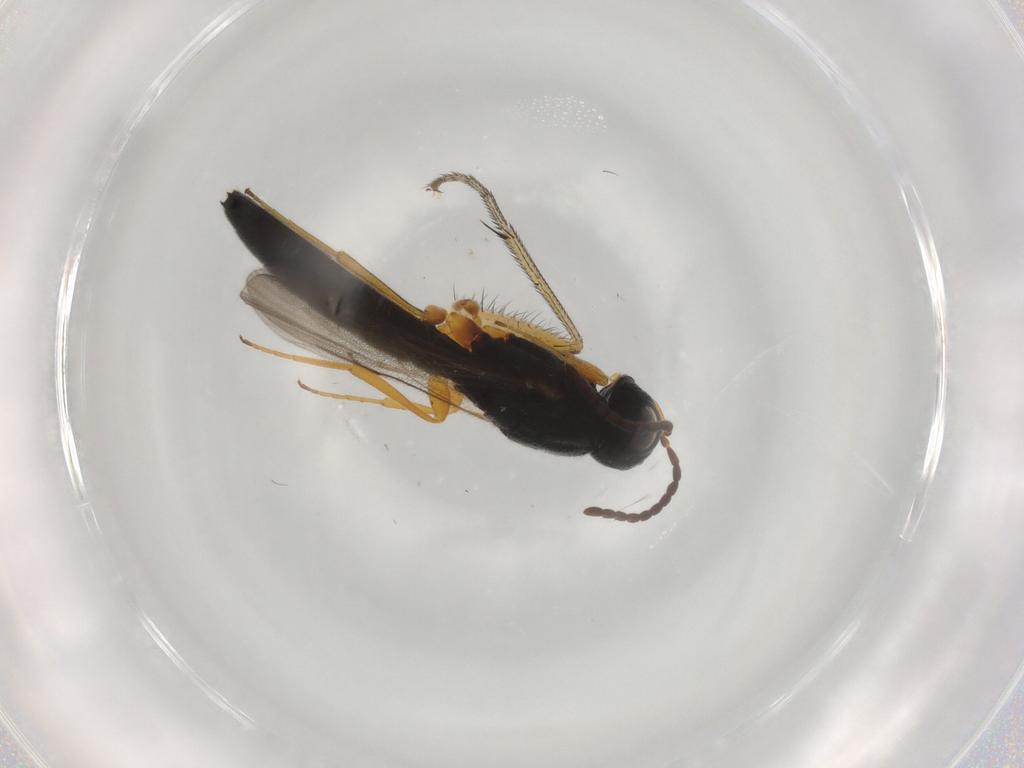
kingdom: Animalia
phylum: Arthropoda
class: Insecta
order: Hymenoptera
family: Scelionidae
